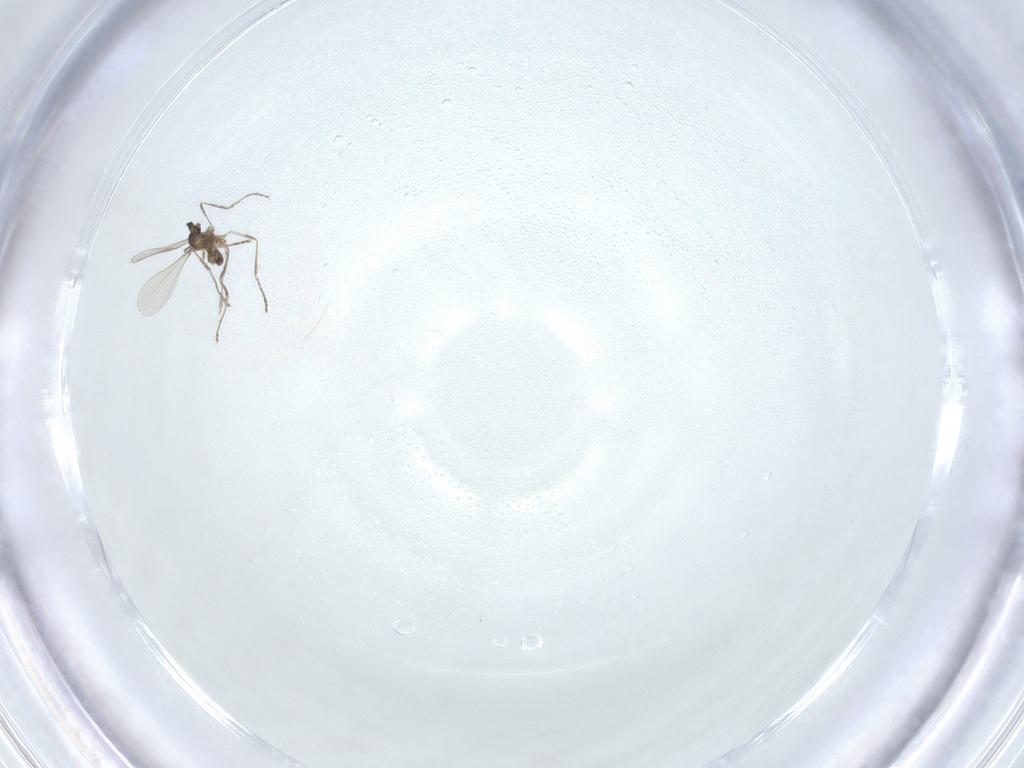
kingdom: Animalia
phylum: Arthropoda
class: Insecta
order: Diptera
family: Cecidomyiidae
